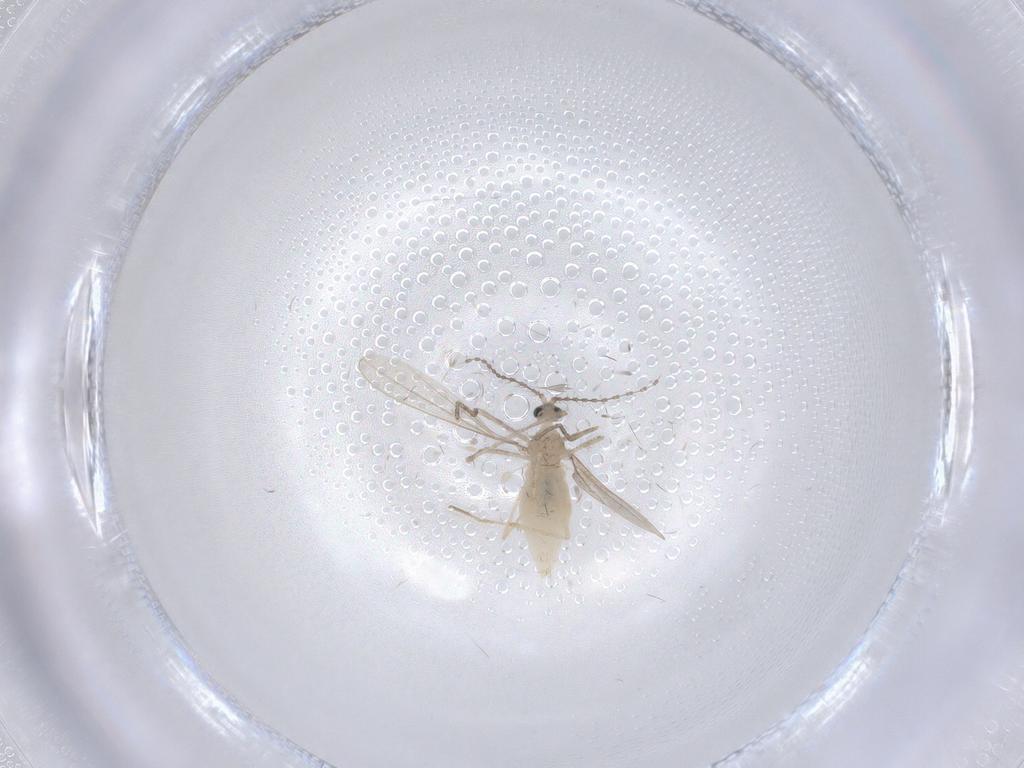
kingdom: Animalia
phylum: Arthropoda
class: Insecta
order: Diptera
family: Cecidomyiidae
